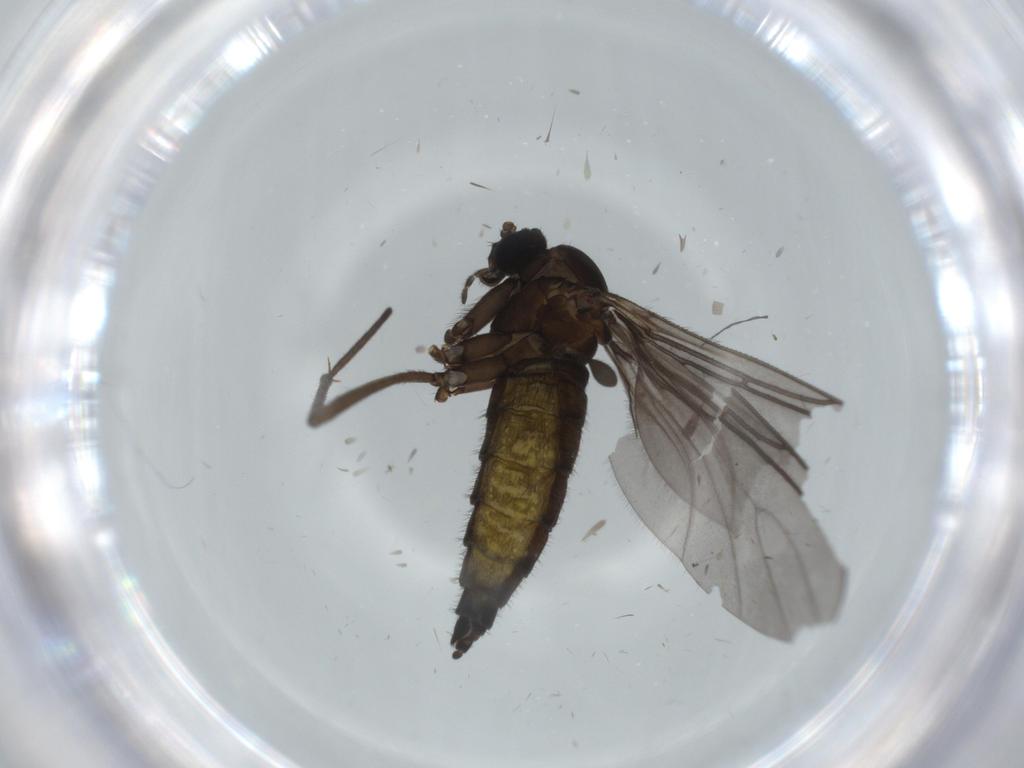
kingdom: Animalia
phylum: Arthropoda
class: Insecta
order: Diptera
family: Sciaridae
